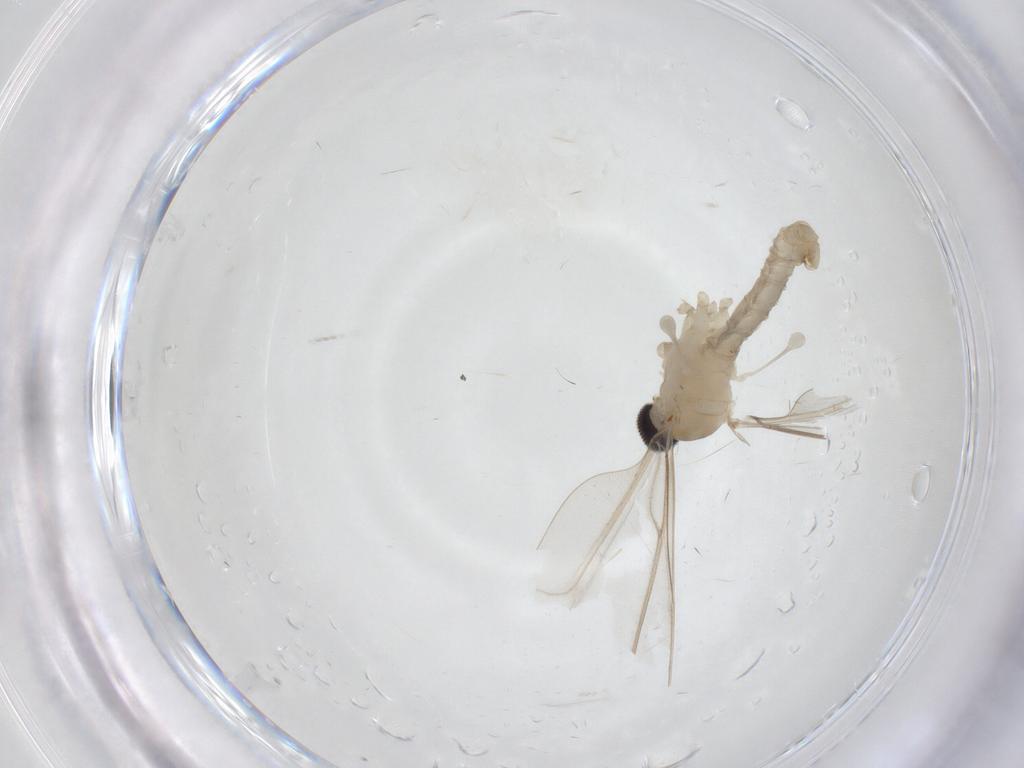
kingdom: Animalia
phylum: Arthropoda
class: Insecta
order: Diptera
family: Cecidomyiidae
